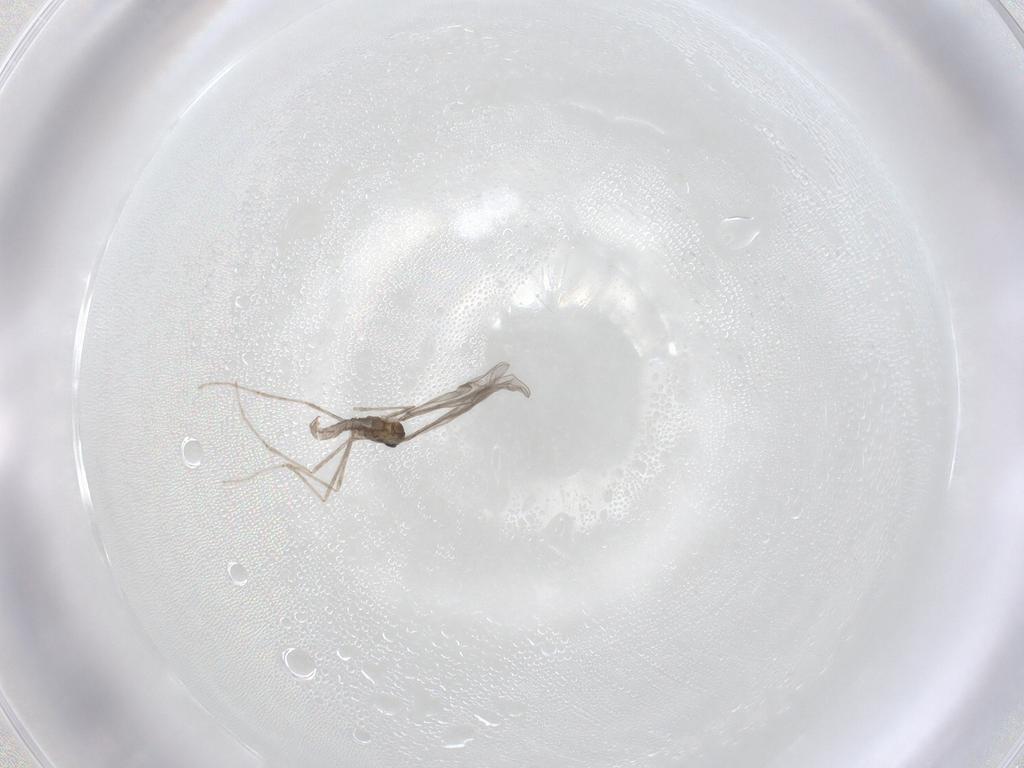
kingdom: Animalia
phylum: Arthropoda
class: Insecta
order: Diptera
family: Cecidomyiidae
